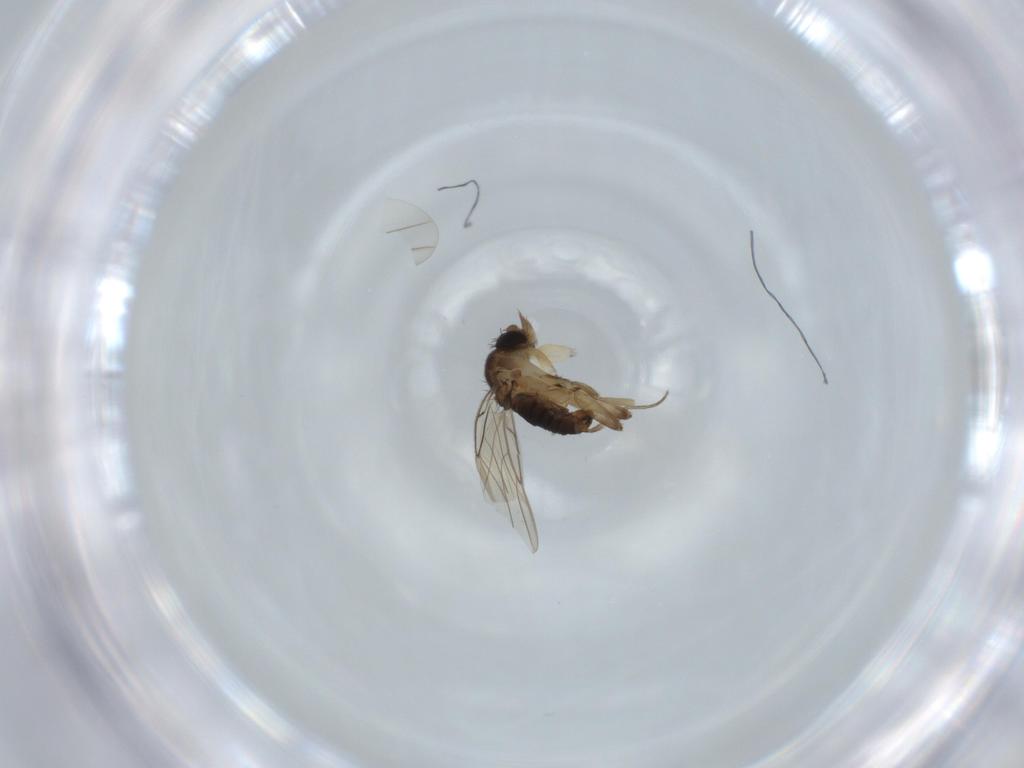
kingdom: Animalia
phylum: Arthropoda
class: Insecta
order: Diptera
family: Phoridae
